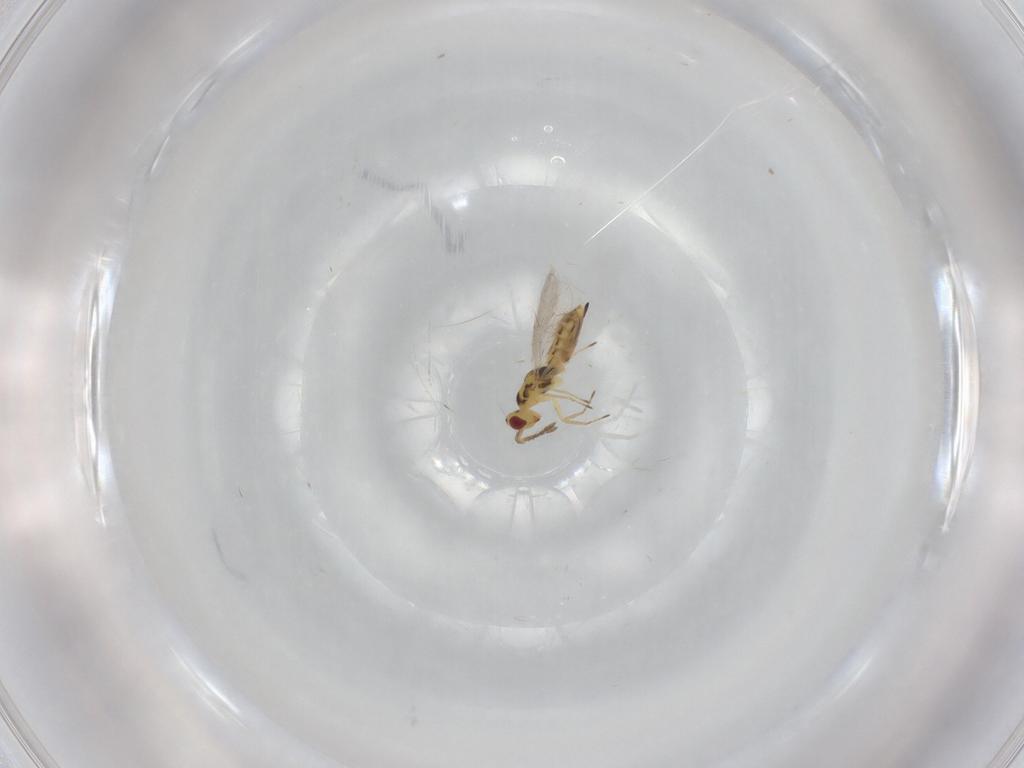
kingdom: Animalia
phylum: Arthropoda
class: Insecta
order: Hymenoptera
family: Eulophidae
